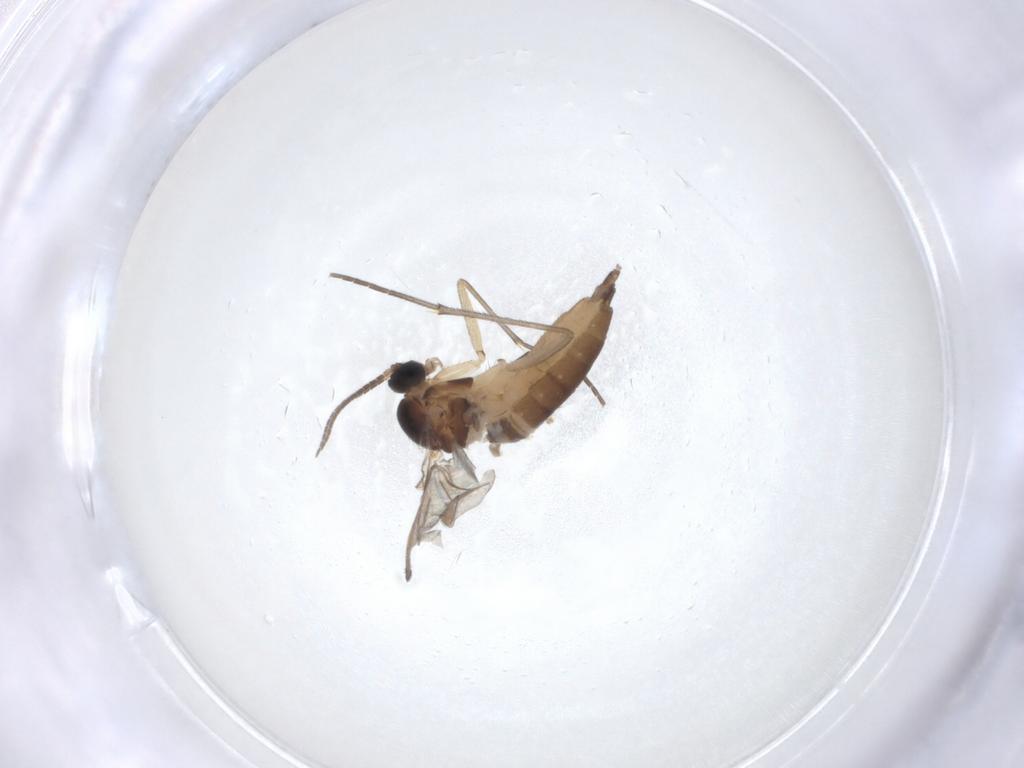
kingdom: Animalia
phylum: Arthropoda
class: Insecta
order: Diptera
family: Sciaridae
